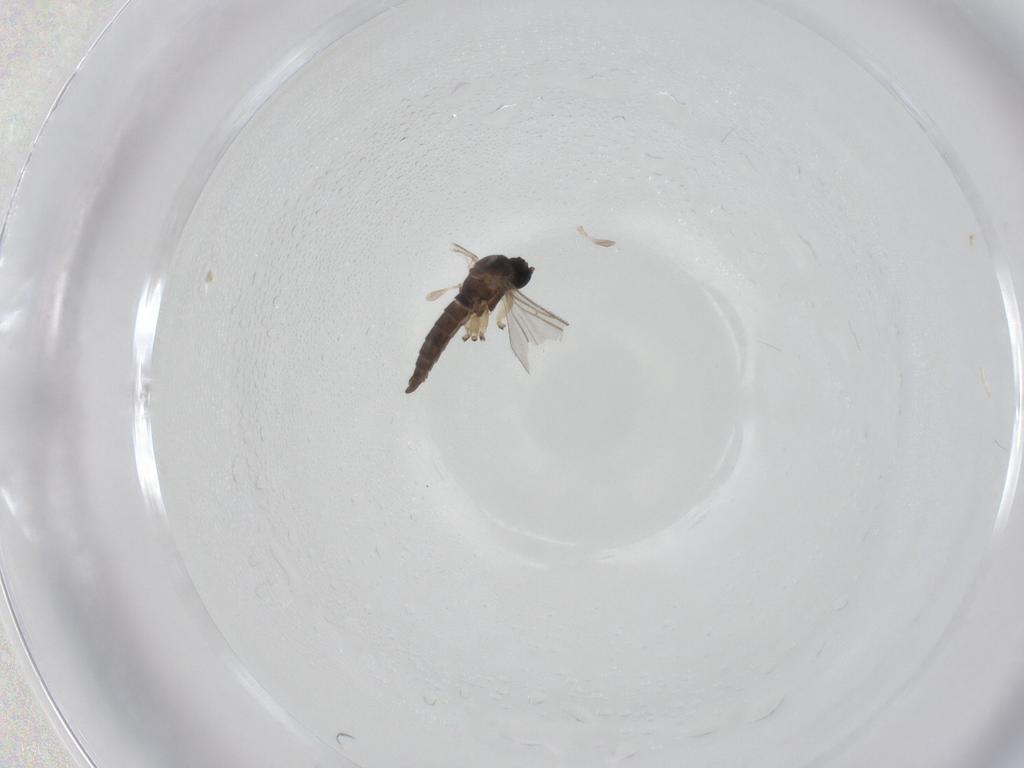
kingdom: Animalia
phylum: Arthropoda
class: Insecta
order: Diptera
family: Sciaridae
